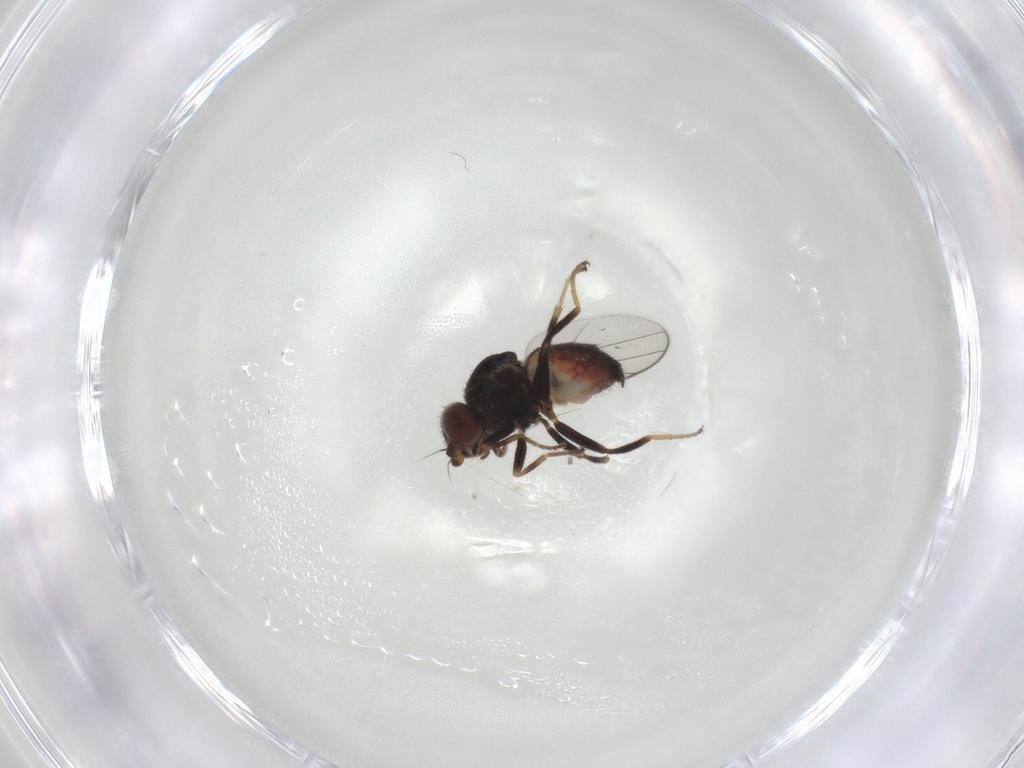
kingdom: Animalia
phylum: Arthropoda
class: Insecta
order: Diptera
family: Chloropidae
